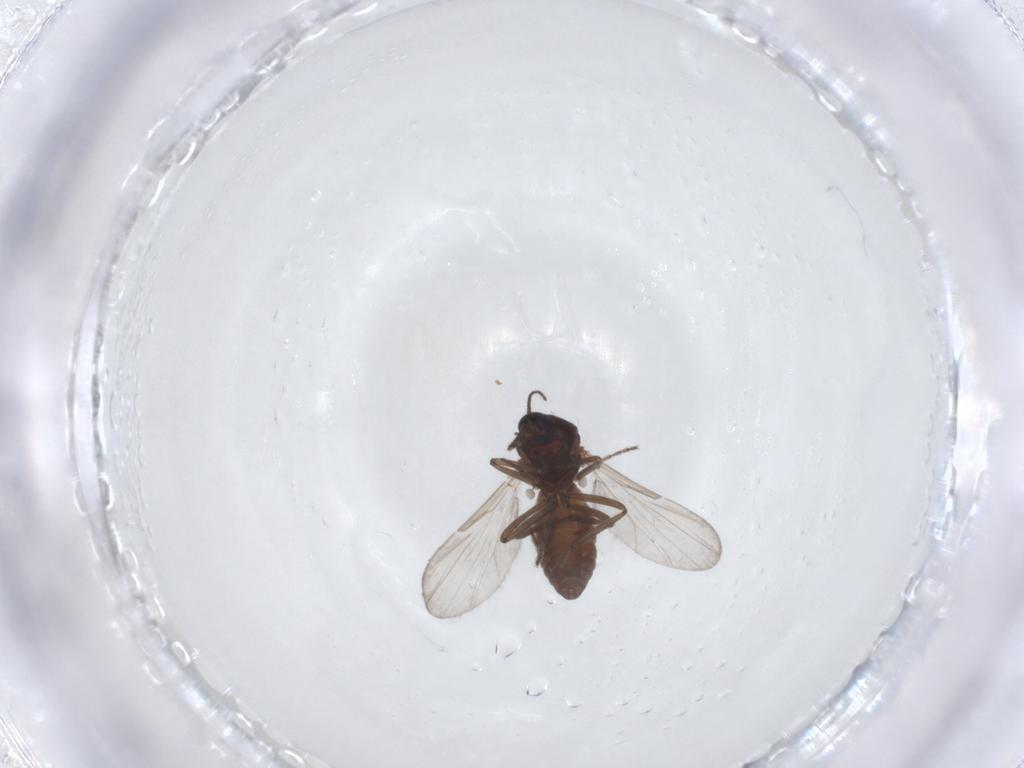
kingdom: Animalia
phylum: Arthropoda
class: Insecta
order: Diptera
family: Ceratopogonidae
